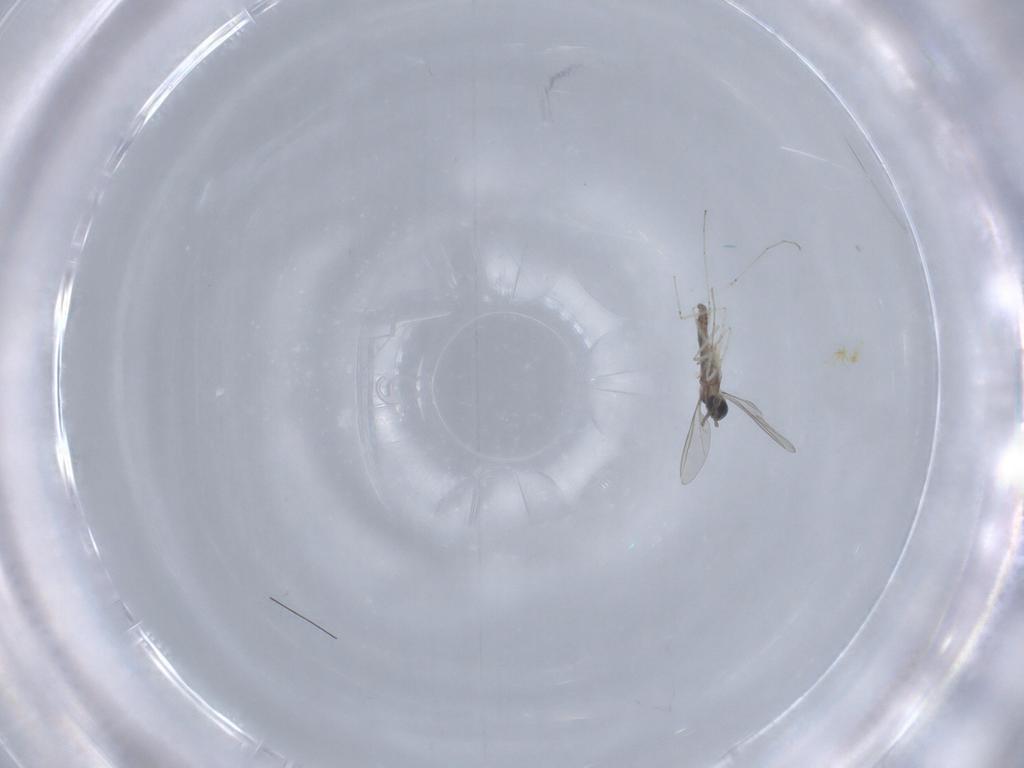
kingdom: Animalia
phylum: Arthropoda
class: Insecta
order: Diptera
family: Cecidomyiidae
